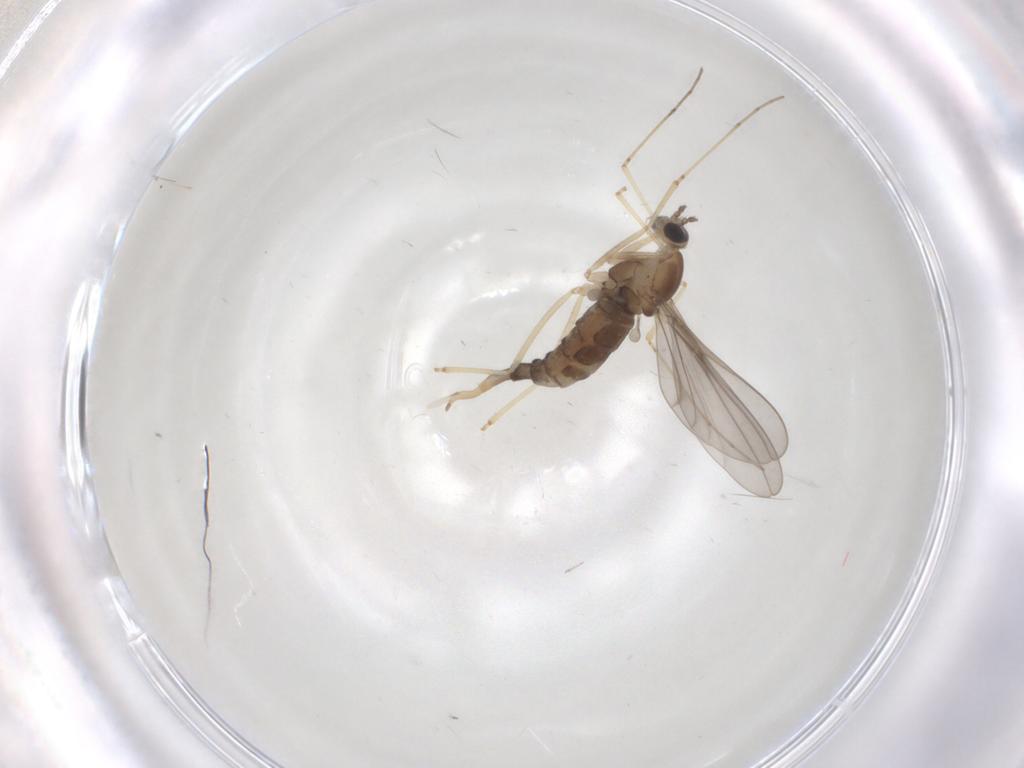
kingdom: Animalia
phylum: Arthropoda
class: Insecta
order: Diptera
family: Cecidomyiidae
